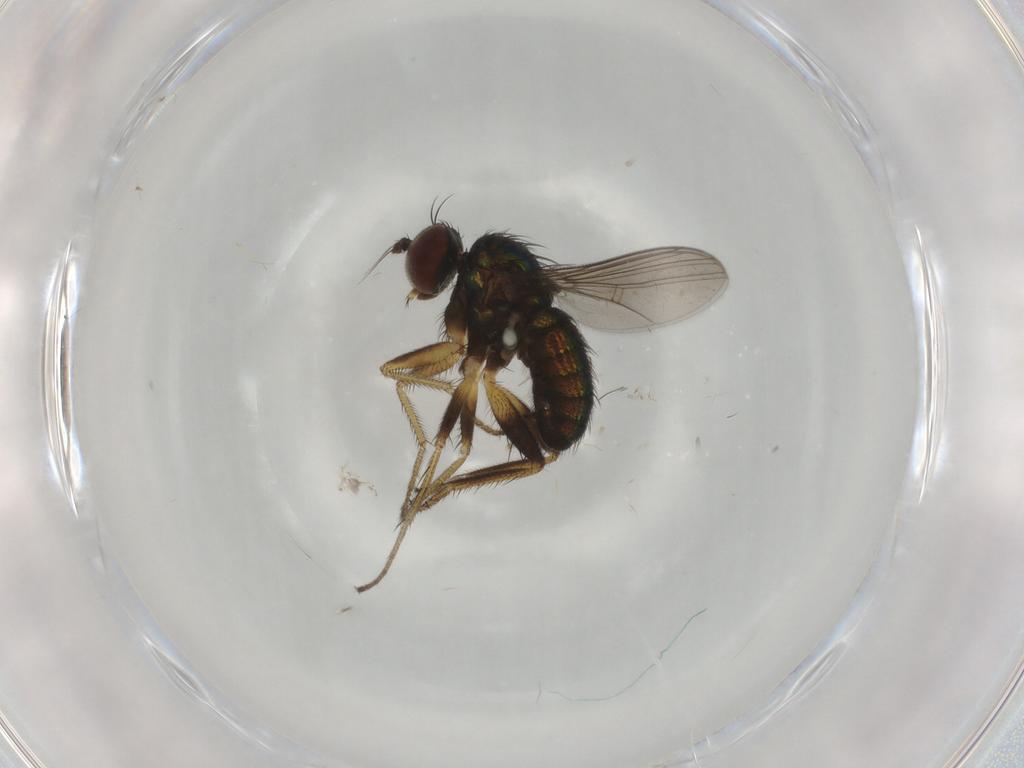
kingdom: Animalia
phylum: Arthropoda
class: Insecta
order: Diptera
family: Dolichopodidae
